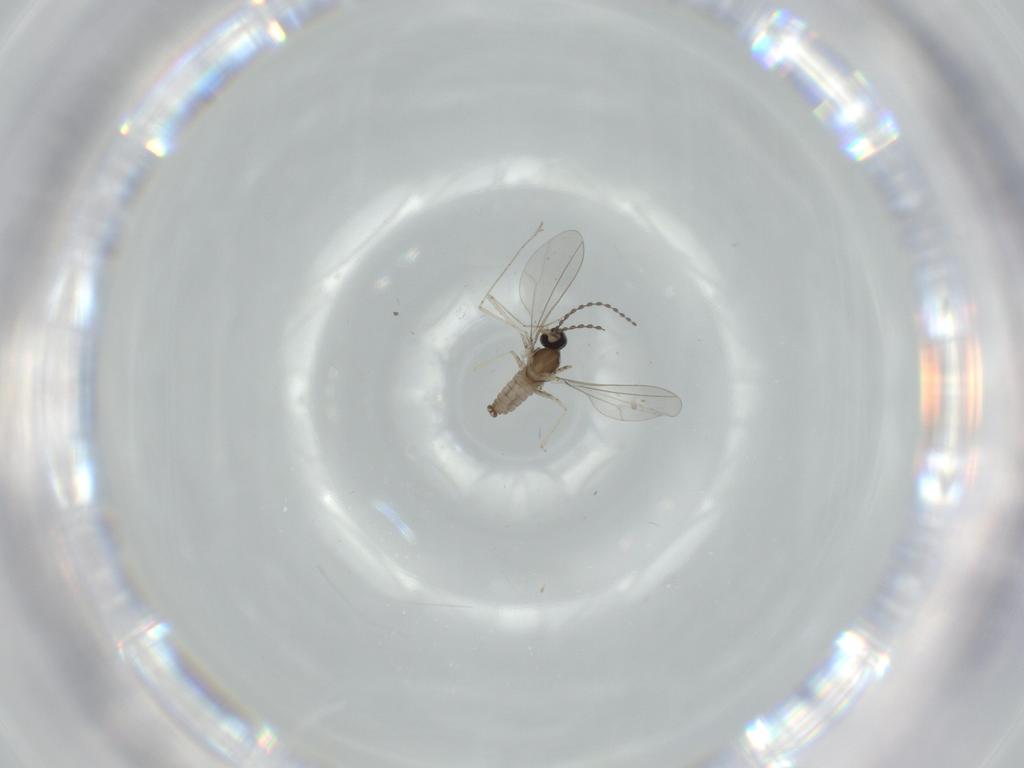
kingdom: Animalia
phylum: Arthropoda
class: Insecta
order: Diptera
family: Cecidomyiidae
